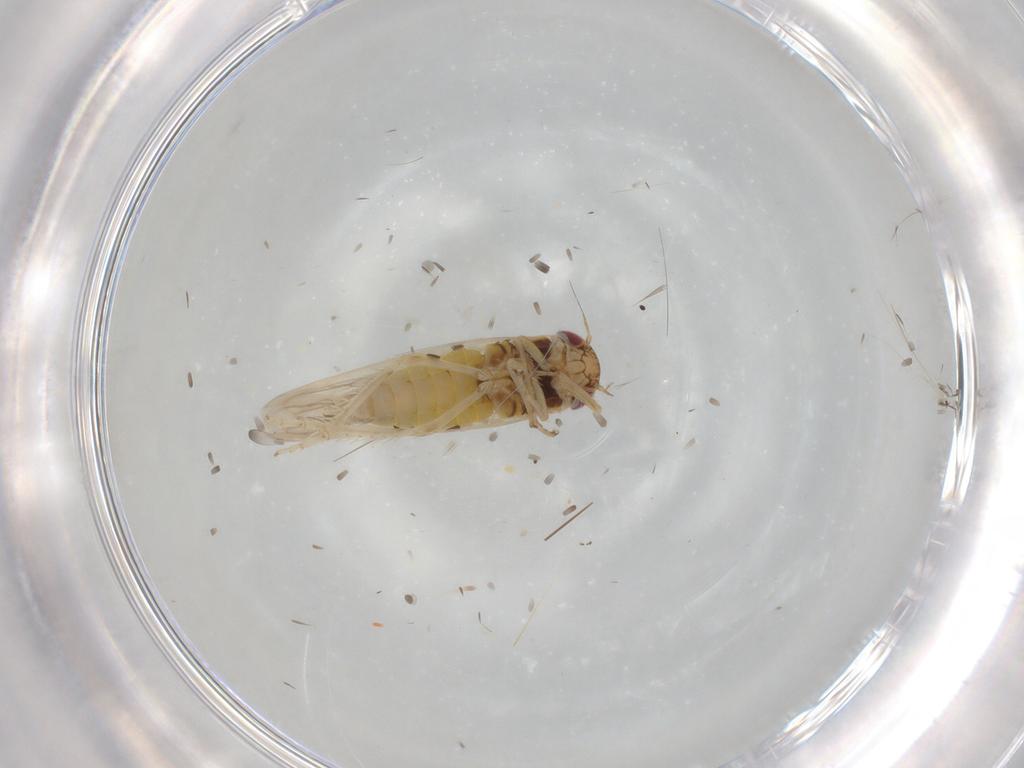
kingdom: Animalia
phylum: Arthropoda
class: Insecta
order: Hemiptera
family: Cicadellidae
